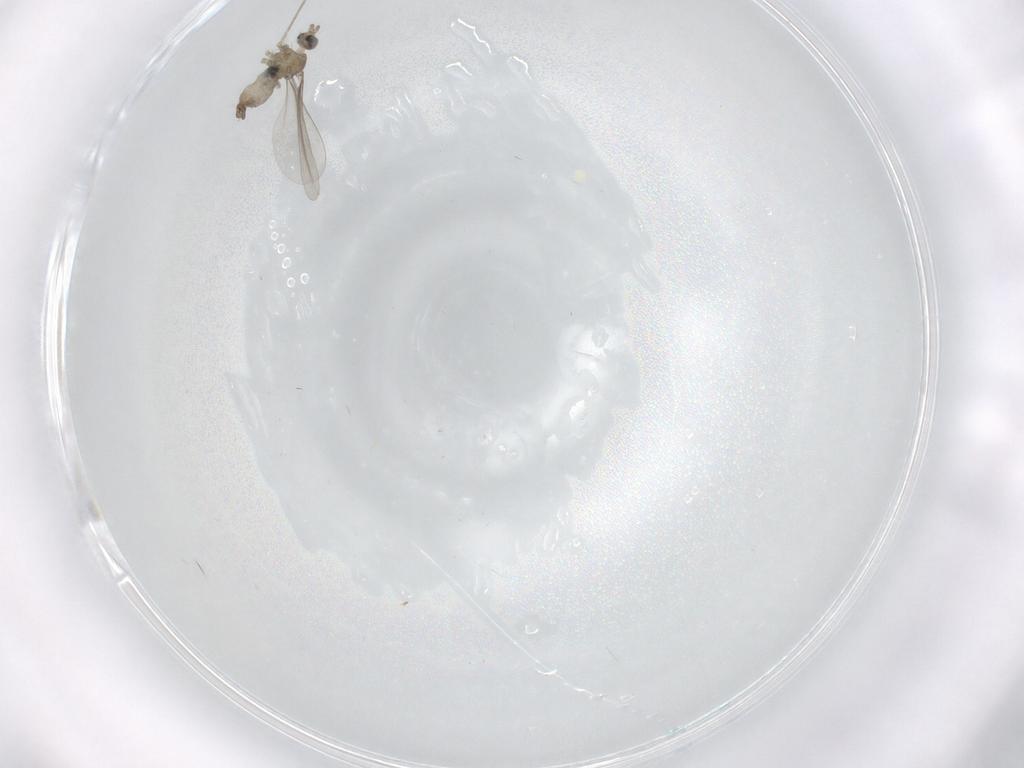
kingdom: Animalia
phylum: Arthropoda
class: Insecta
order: Diptera
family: Cecidomyiidae
